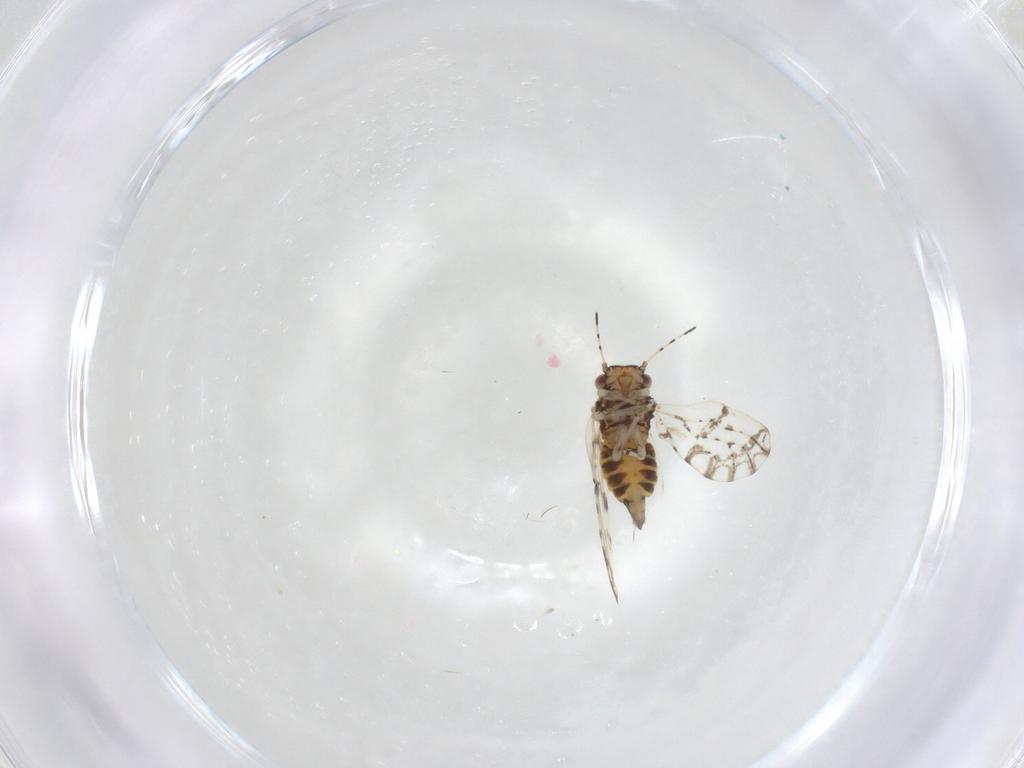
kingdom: Animalia
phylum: Arthropoda
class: Insecta
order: Hemiptera
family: Psylloidea_incertae_sedis
